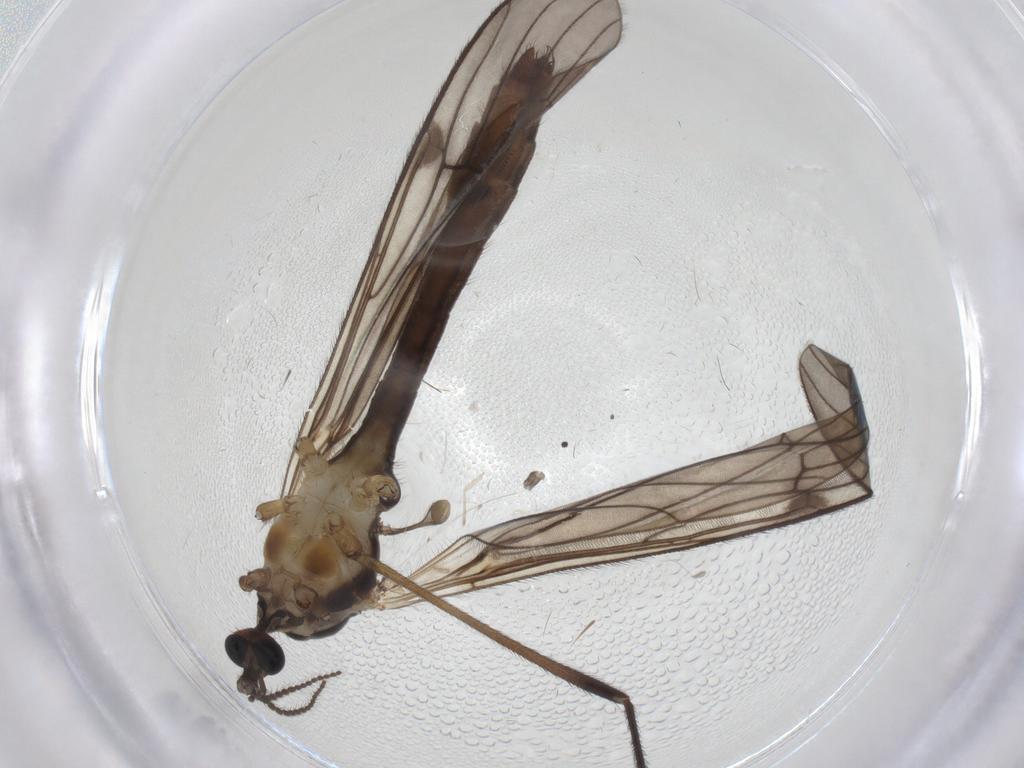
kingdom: Animalia
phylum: Arthropoda
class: Insecta
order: Diptera
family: Limoniidae
